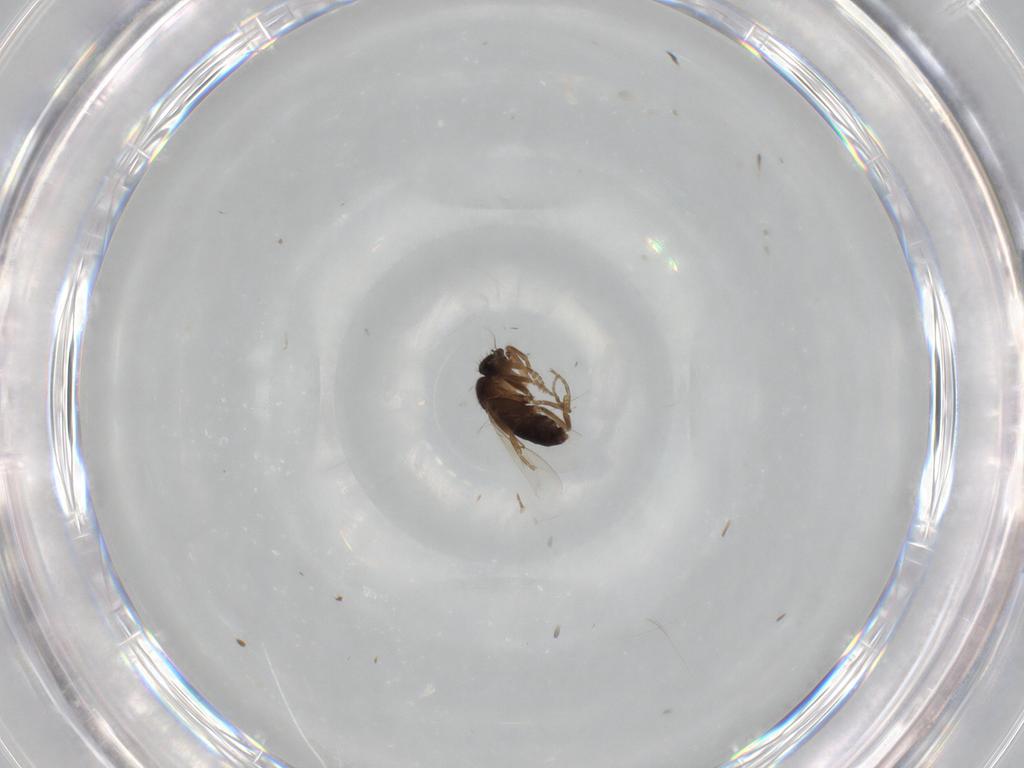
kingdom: Animalia
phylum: Arthropoda
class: Insecta
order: Diptera
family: Phoridae
